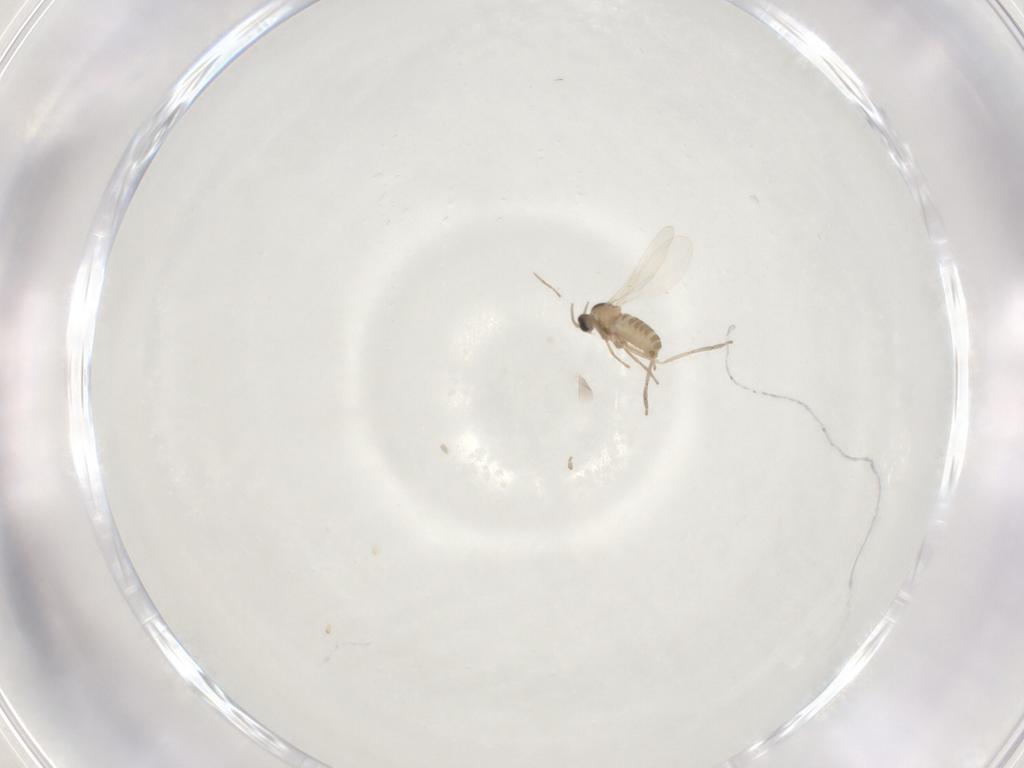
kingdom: Animalia
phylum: Arthropoda
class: Insecta
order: Diptera
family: Cecidomyiidae
